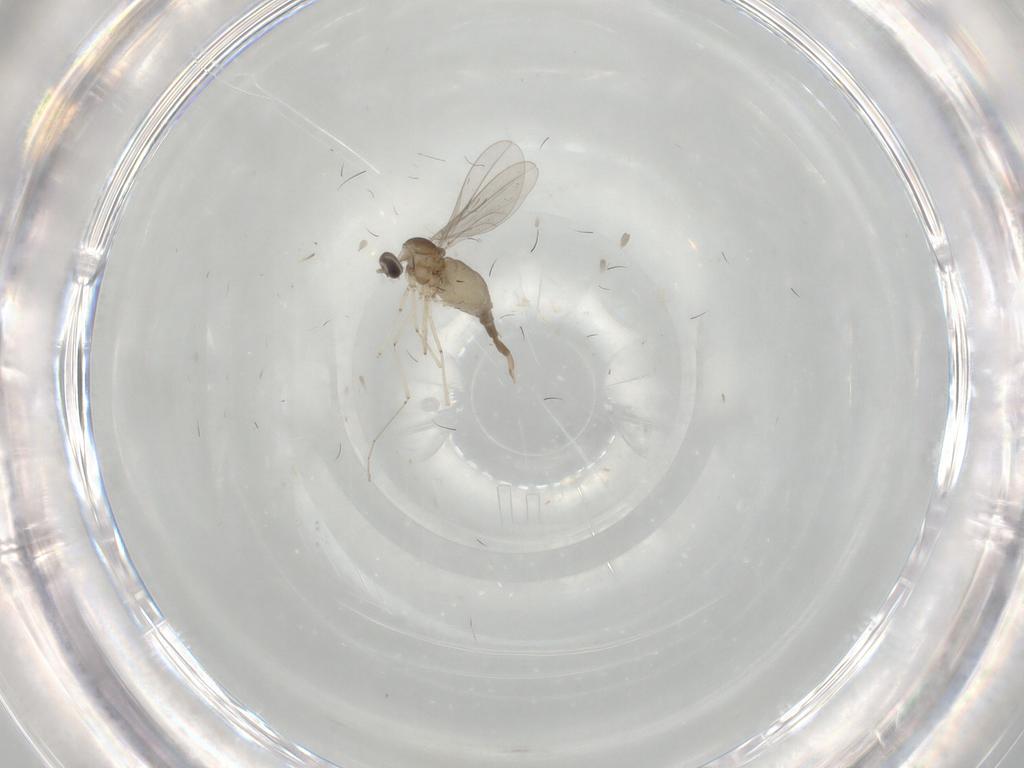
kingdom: Animalia
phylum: Arthropoda
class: Insecta
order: Diptera
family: Cecidomyiidae
